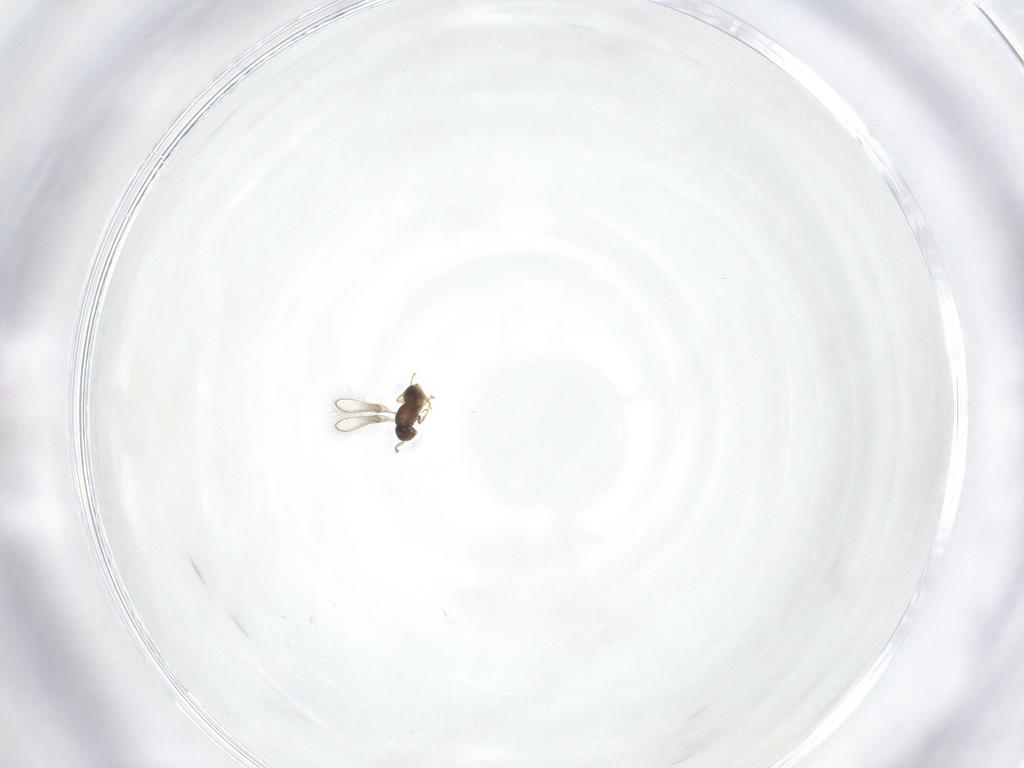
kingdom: Animalia
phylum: Arthropoda
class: Insecta
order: Hymenoptera
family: Mymaridae
